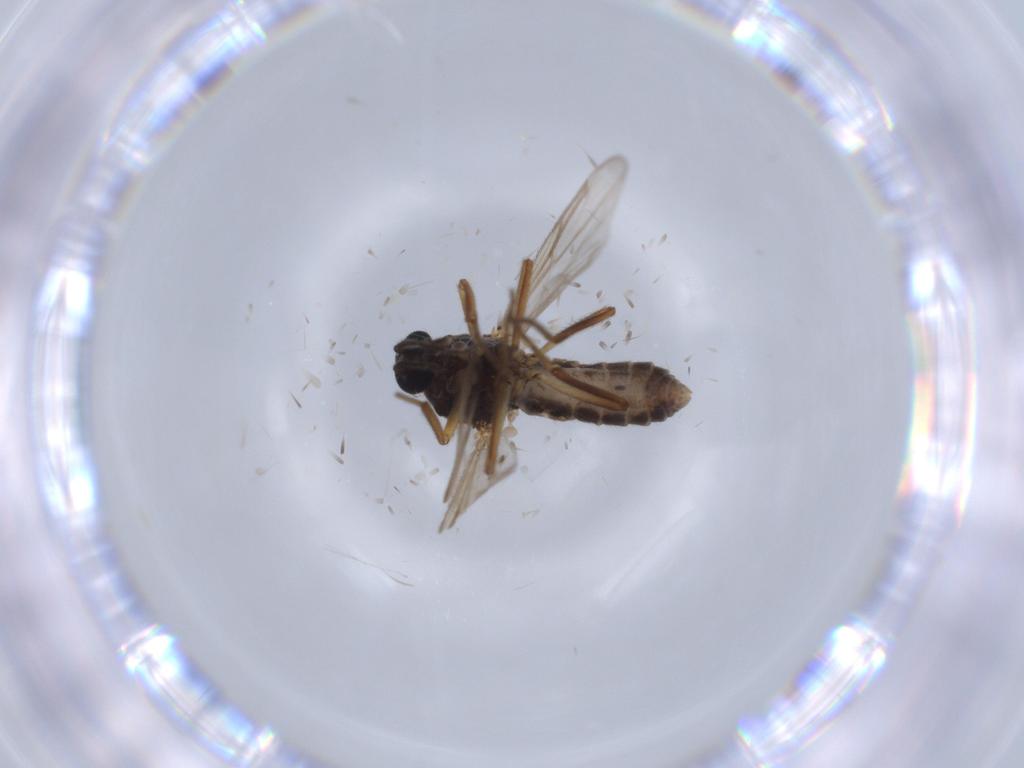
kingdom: Animalia
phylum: Arthropoda
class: Insecta
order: Diptera
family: Ceratopogonidae
